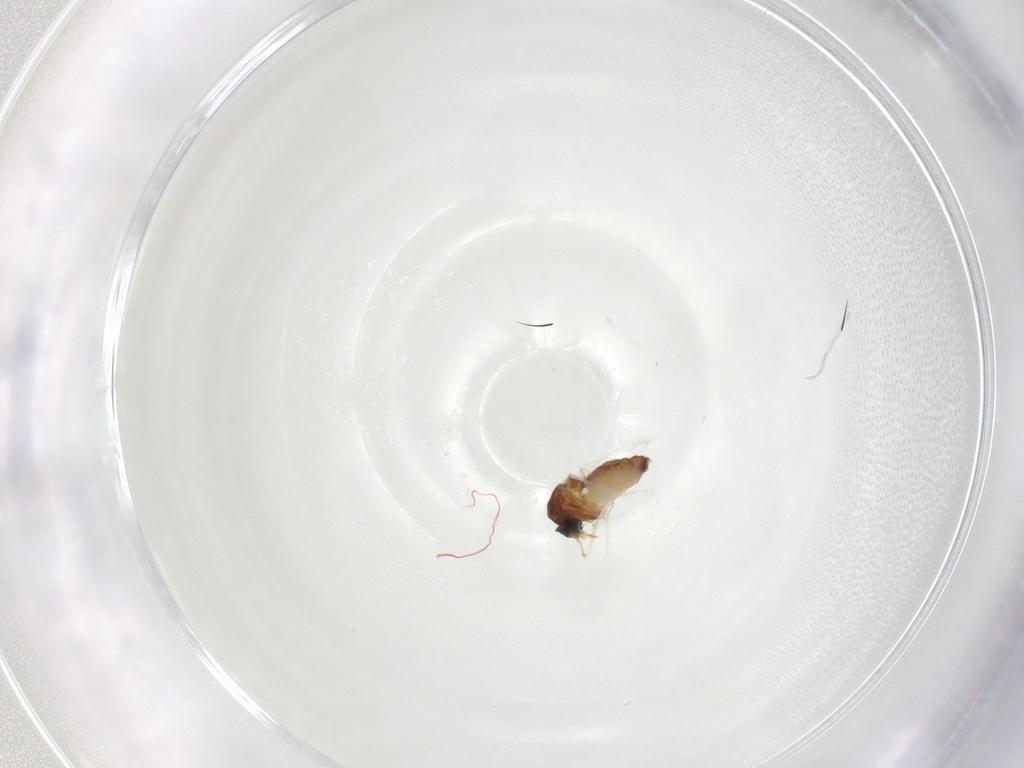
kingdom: Animalia
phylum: Arthropoda
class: Insecta
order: Diptera
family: Ceratopogonidae
